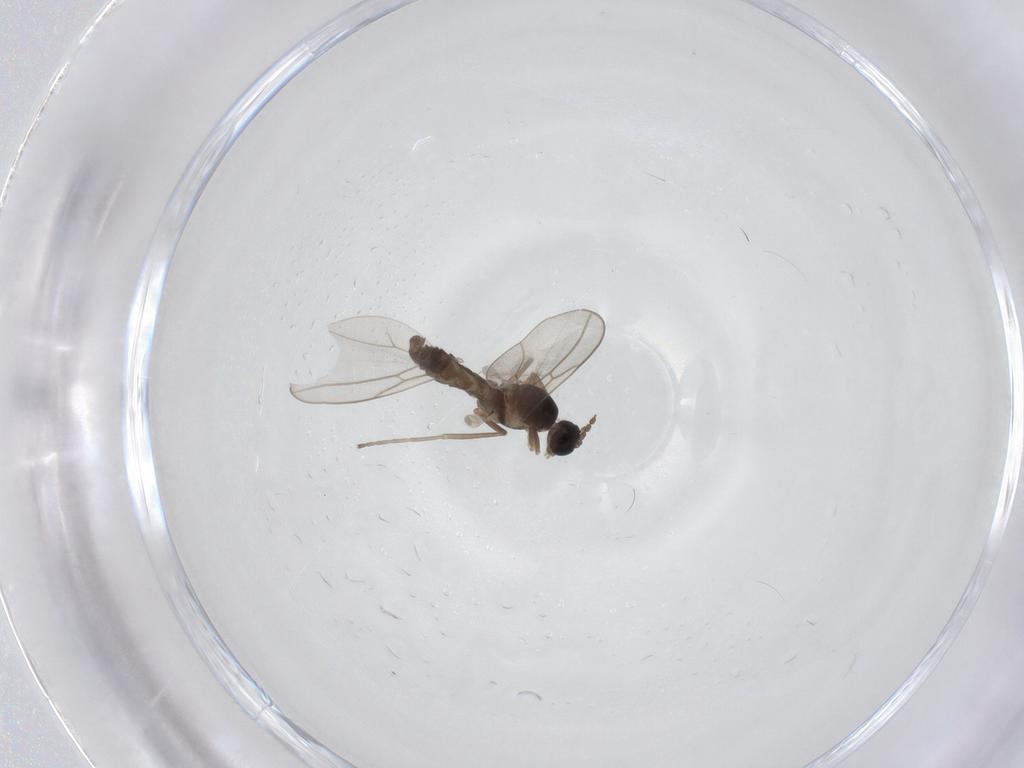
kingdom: Animalia
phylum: Arthropoda
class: Insecta
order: Diptera
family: Cecidomyiidae
